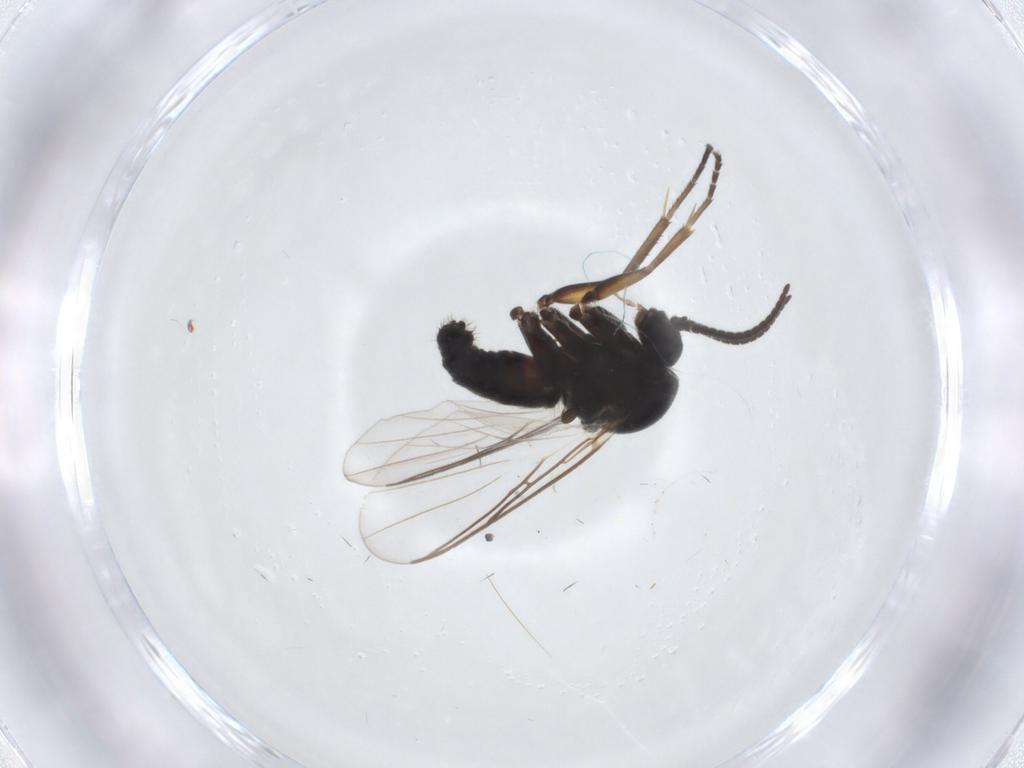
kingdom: Animalia
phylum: Arthropoda
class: Insecta
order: Diptera
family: Mycetophilidae
